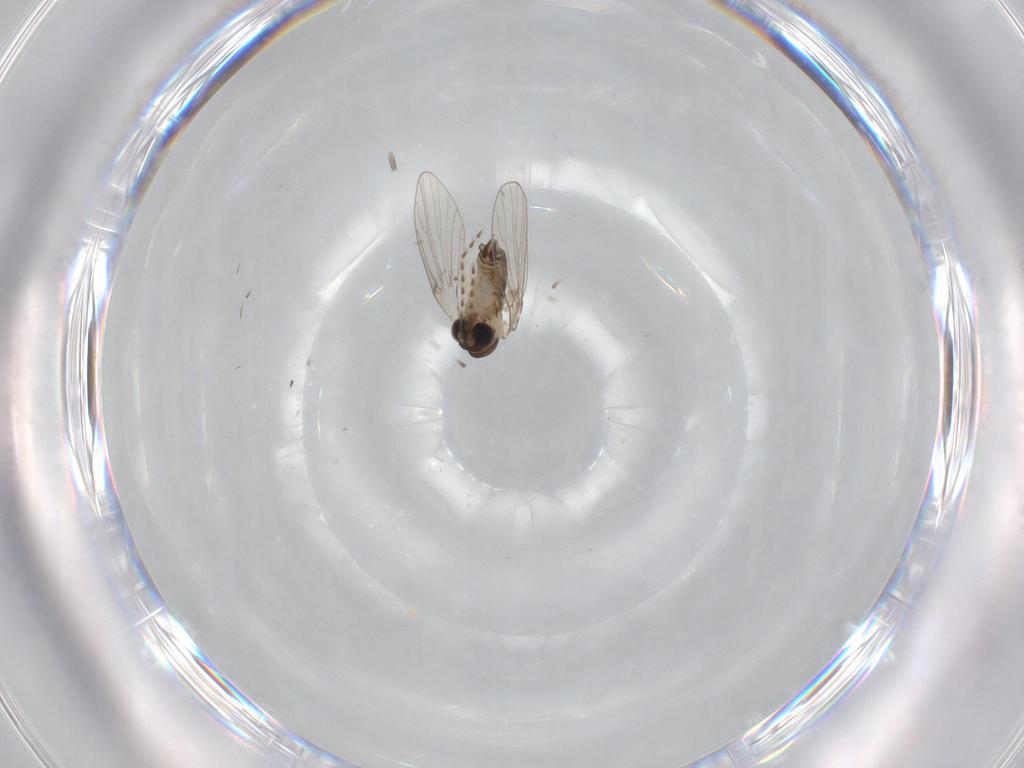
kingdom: Animalia
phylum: Arthropoda
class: Insecta
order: Diptera
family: Psychodidae
